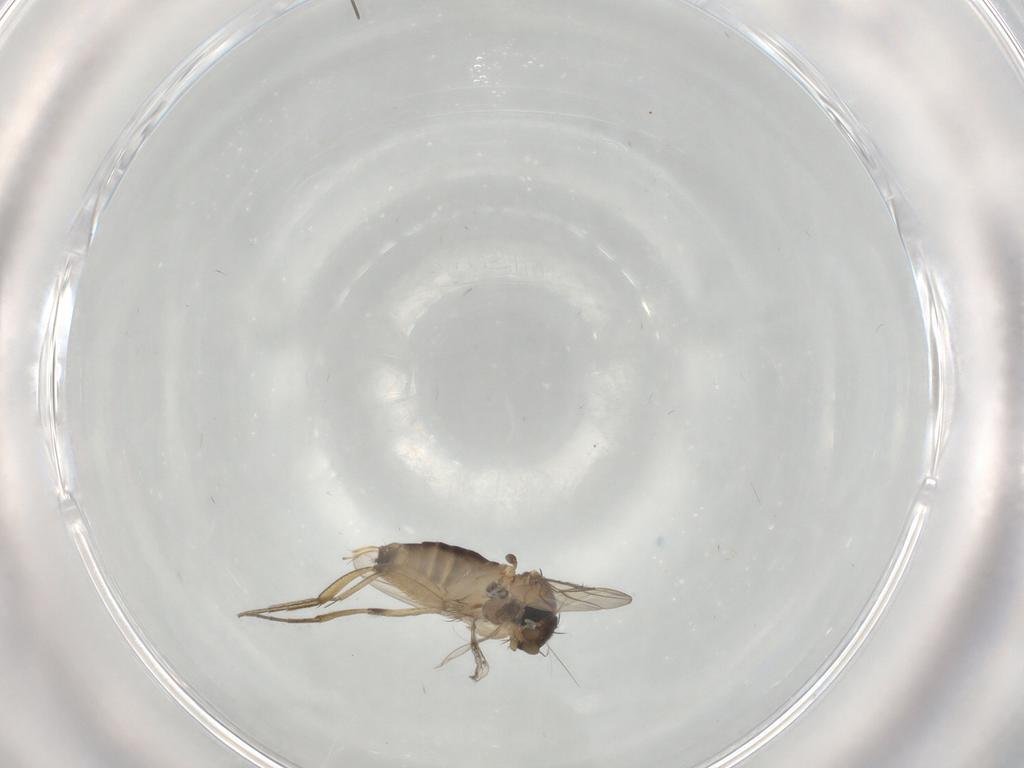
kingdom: Animalia
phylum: Arthropoda
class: Insecta
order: Diptera
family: Phoridae
